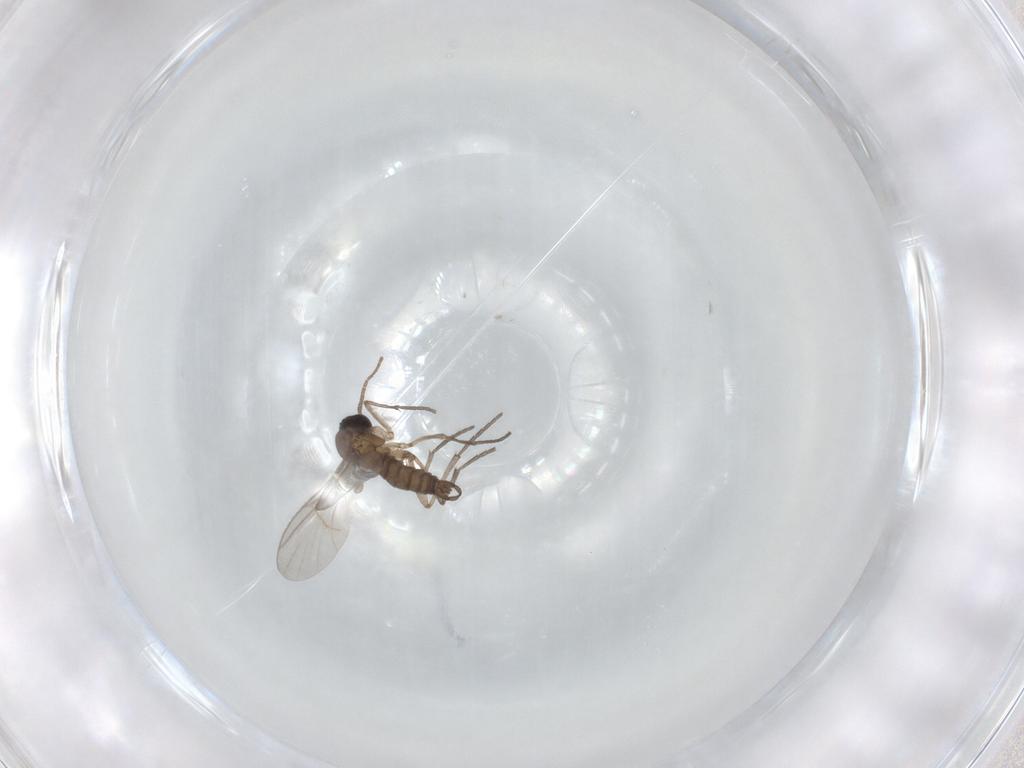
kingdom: Animalia
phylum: Arthropoda
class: Insecta
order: Diptera
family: Sciaridae
